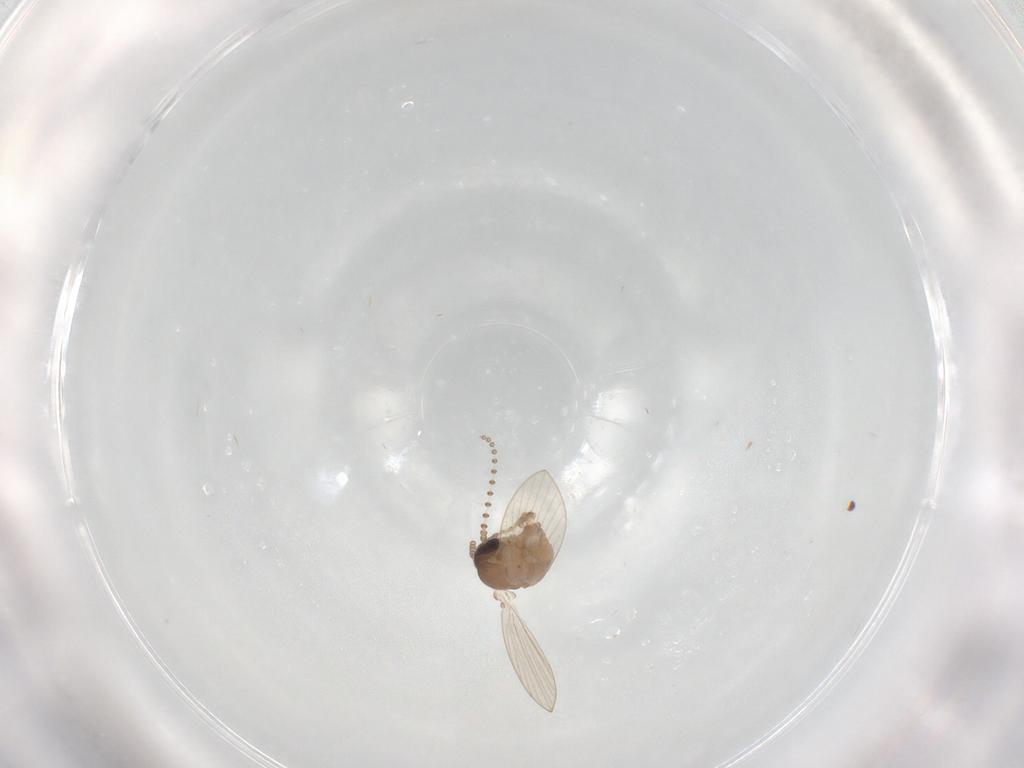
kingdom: Animalia
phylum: Arthropoda
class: Insecta
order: Diptera
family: Psychodidae
